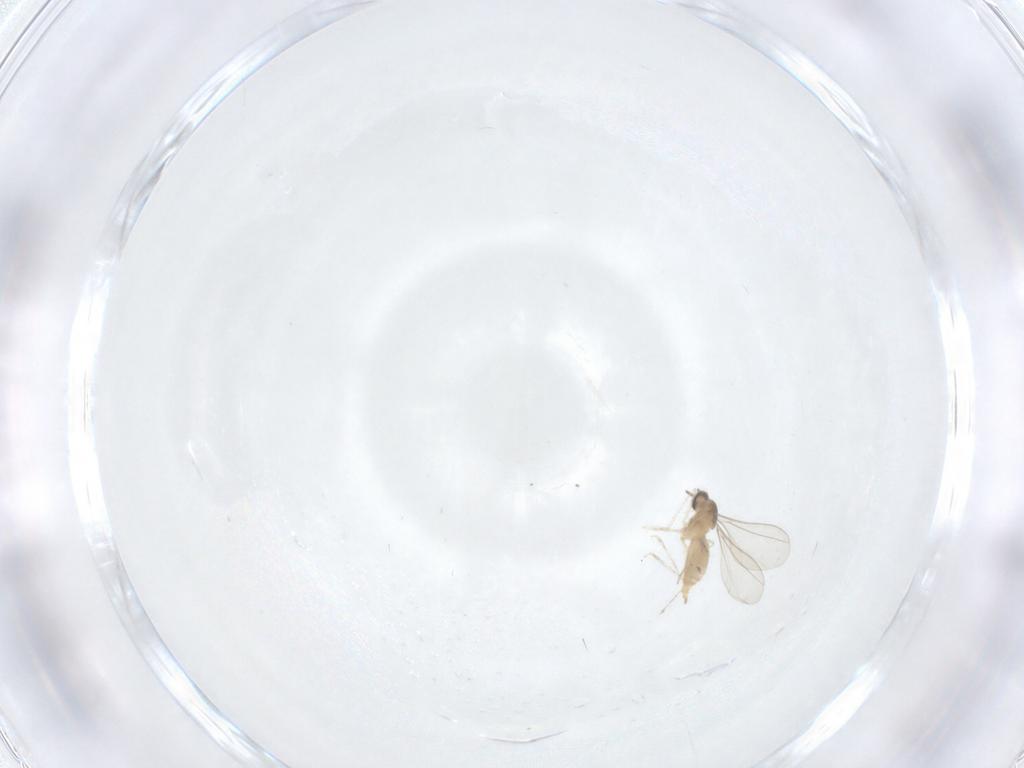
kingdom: Animalia
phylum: Arthropoda
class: Insecta
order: Diptera
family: Cecidomyiidae
